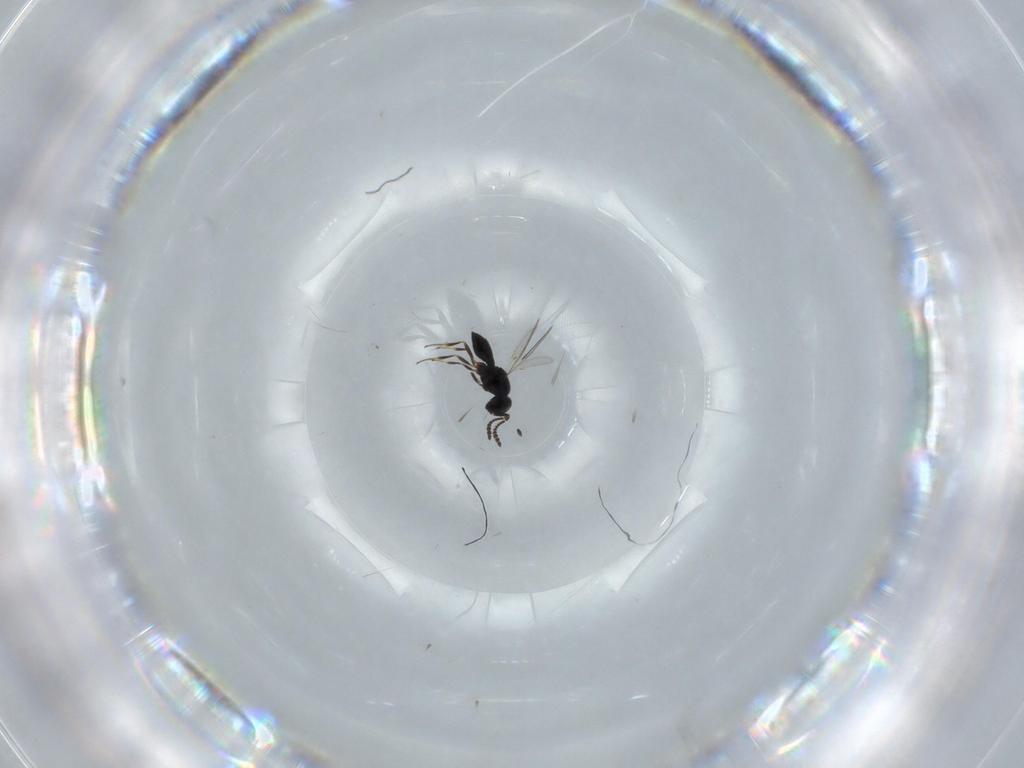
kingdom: Animalia
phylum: Arthropoda
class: Insecta
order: Hymenoptera
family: Scelionidae
